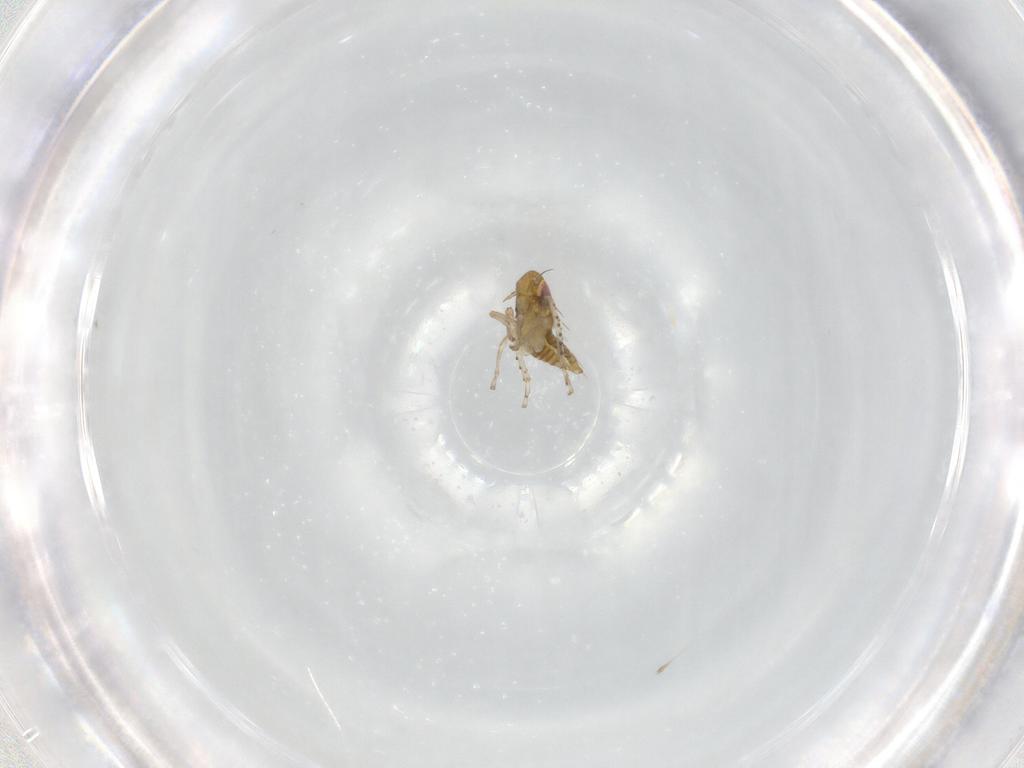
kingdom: Animalia
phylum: Arthropoda
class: Insecta
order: Hemiptera
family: Cicadellidae
